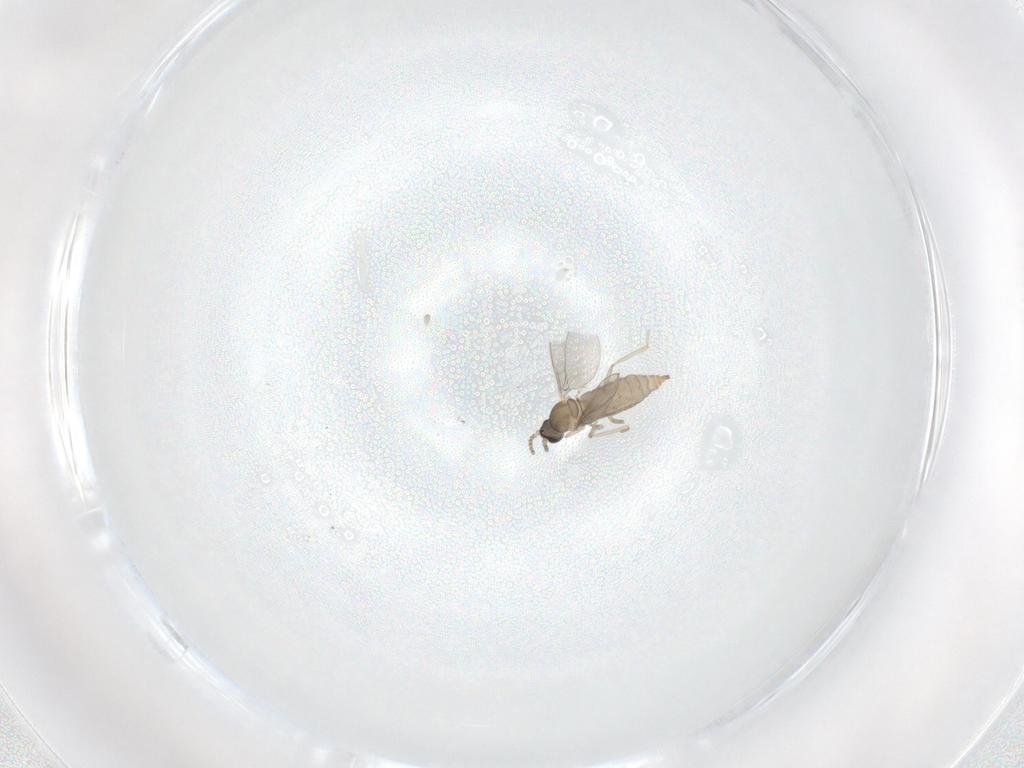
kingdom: Animalia
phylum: Arthropoda
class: Insecta
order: Diptera
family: Cecidomyiidae
